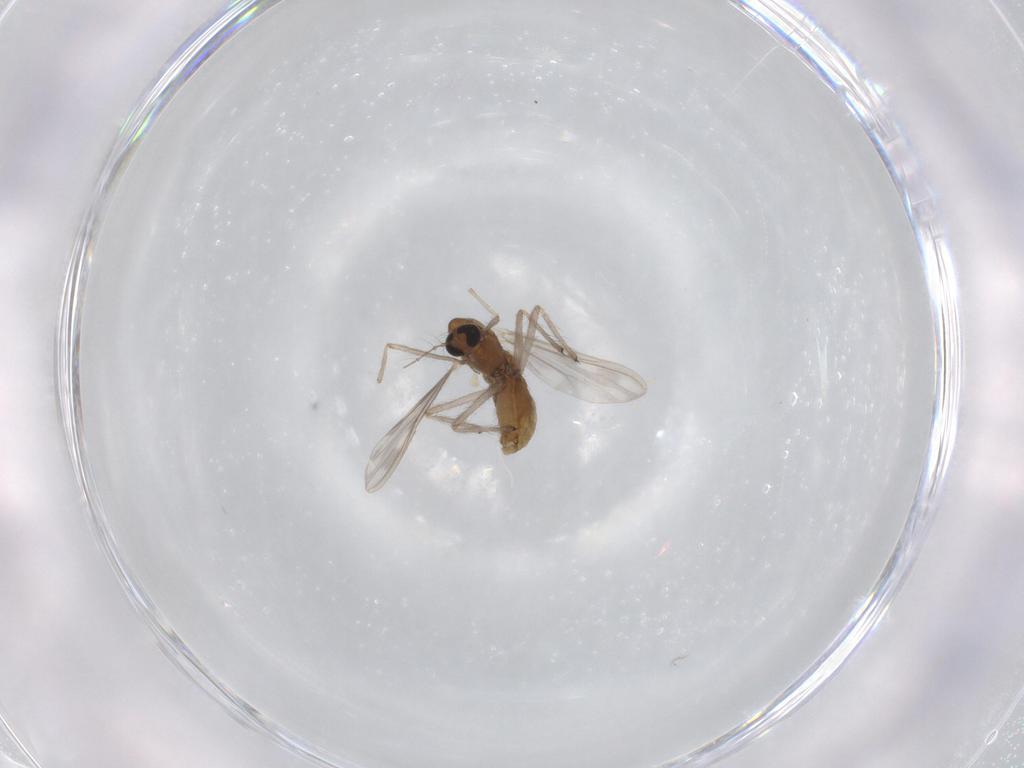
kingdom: Animalia
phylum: Arthropoda
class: Insecta
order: Diptera
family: Chironomidae
